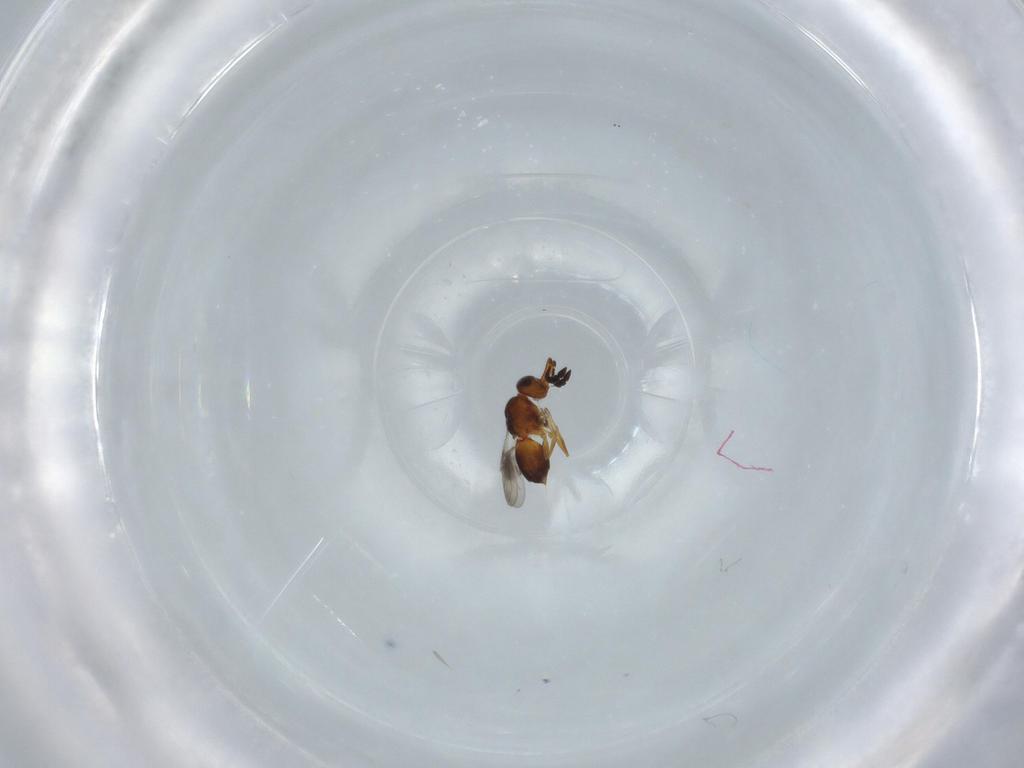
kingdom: Animalia
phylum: Arthropoda
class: Insecta
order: Hymenoptera
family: Ceraphronidae
